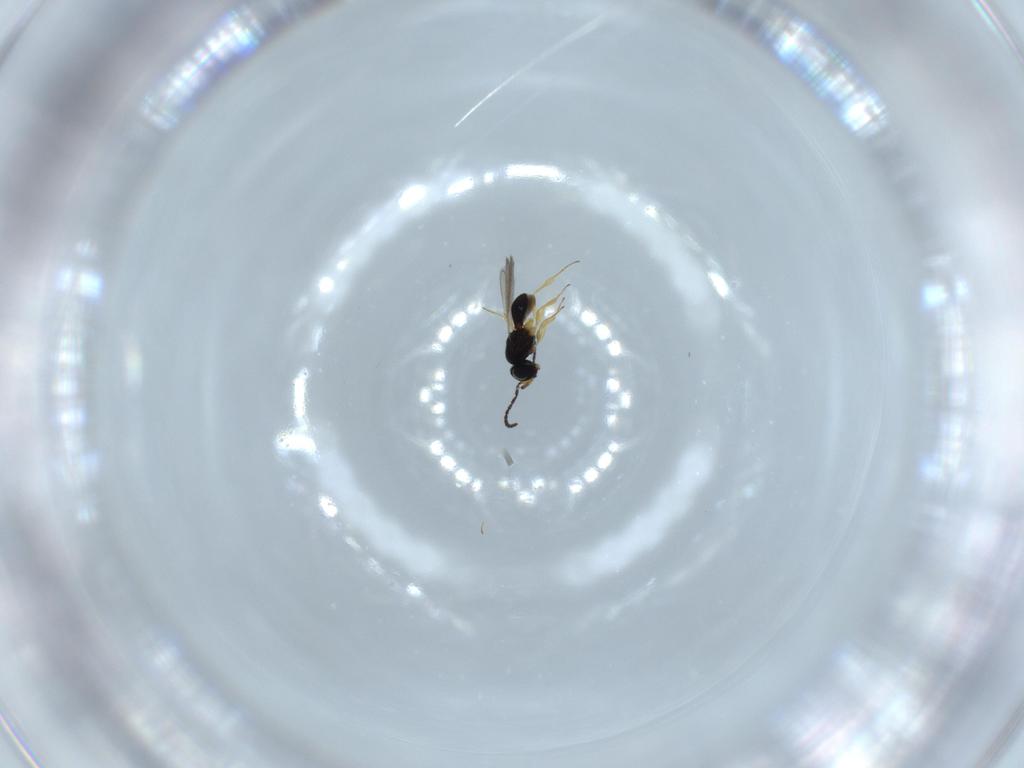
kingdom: Animalia
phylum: Arthropoda
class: Insecta
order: Hymenoptera
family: Scelionidae
